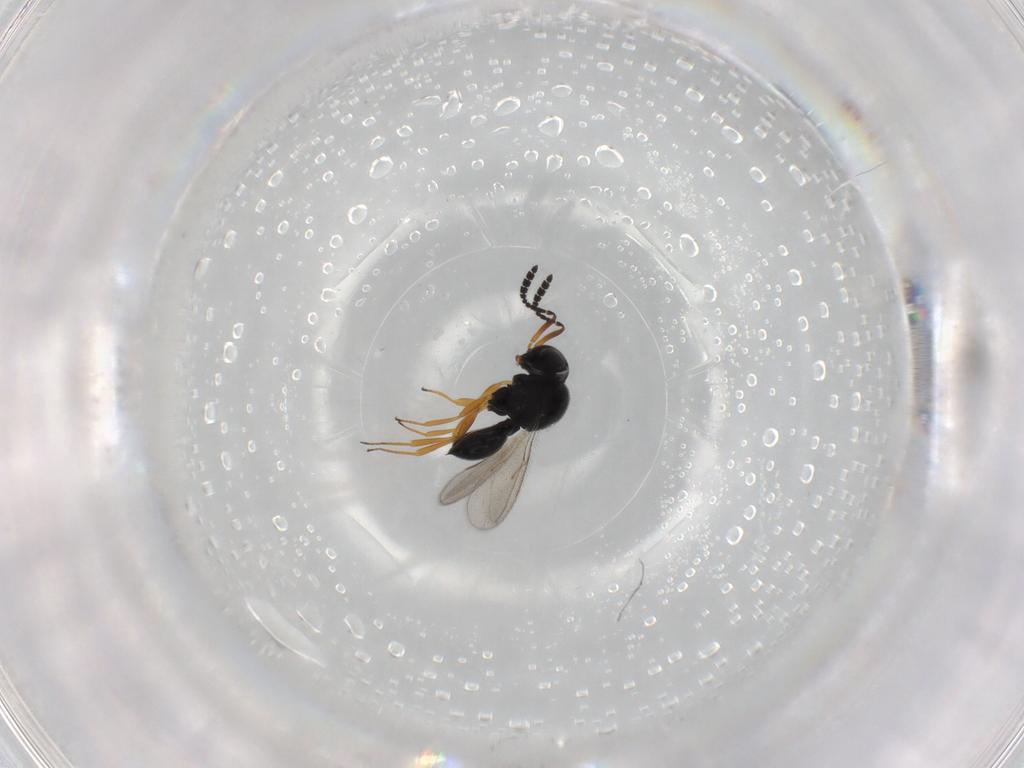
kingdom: Animalia
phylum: Arthropoda
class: Insecta
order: Hymenoptera
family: Scelionidae
